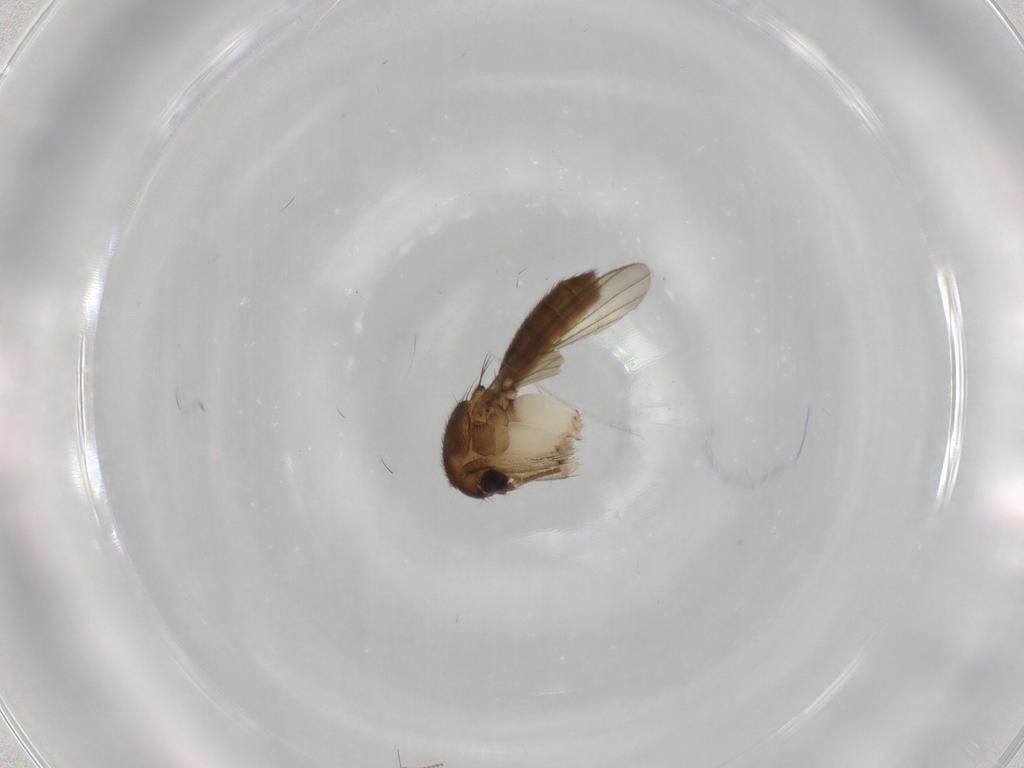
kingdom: Animalia
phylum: Arthropoda
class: Insecta
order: Diptera
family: Mycetophilidae
